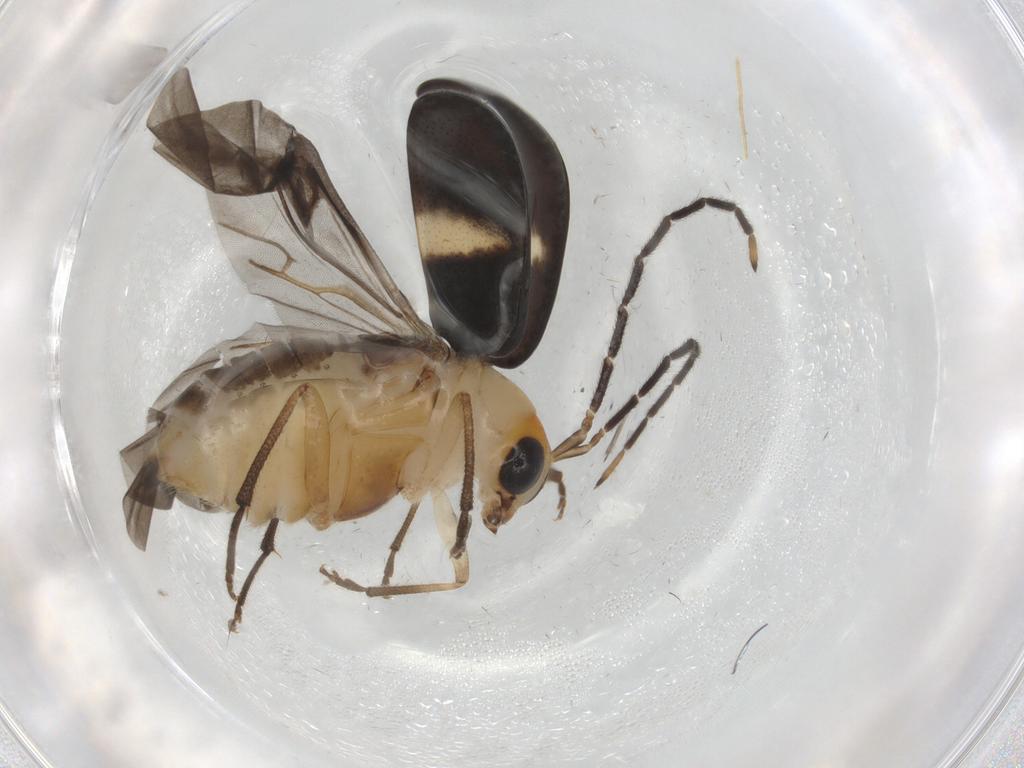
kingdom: Animalia
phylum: Arthropoda
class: Insecta
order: Coleoptera
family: Chrysomelidae
